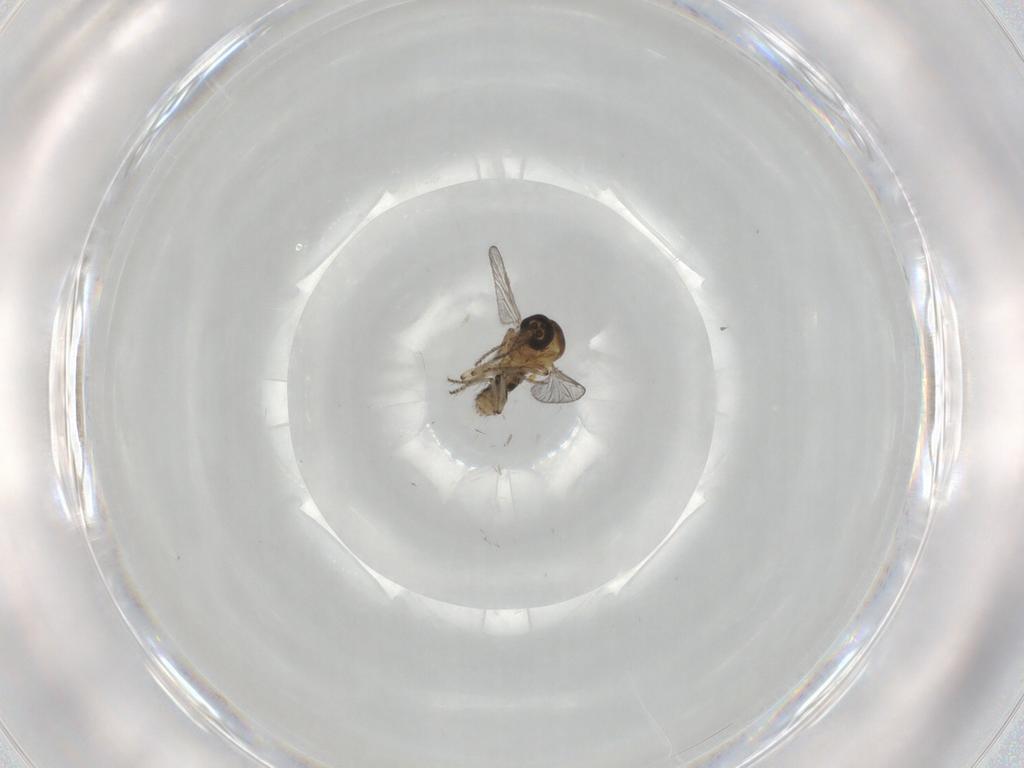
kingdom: Animalia
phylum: Arthropoda
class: Insecta
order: Diptera
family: Ceratopogonidae
